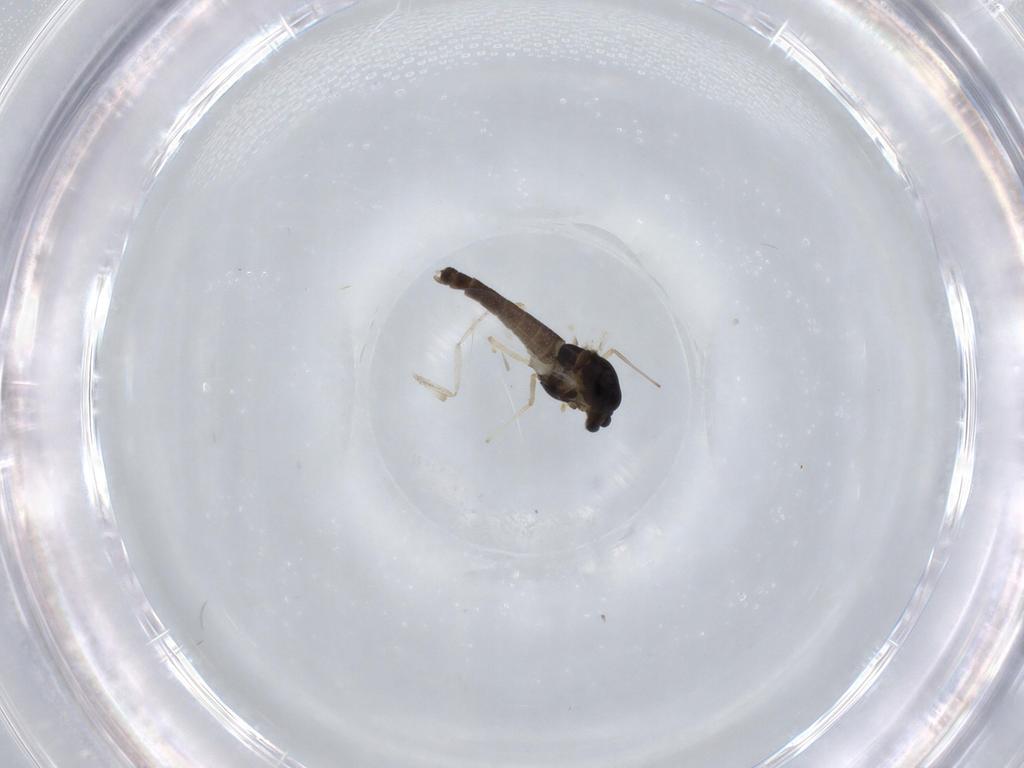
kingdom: Animalia
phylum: Arthropoda
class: Insecta
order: Diptera
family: Chironomidae
